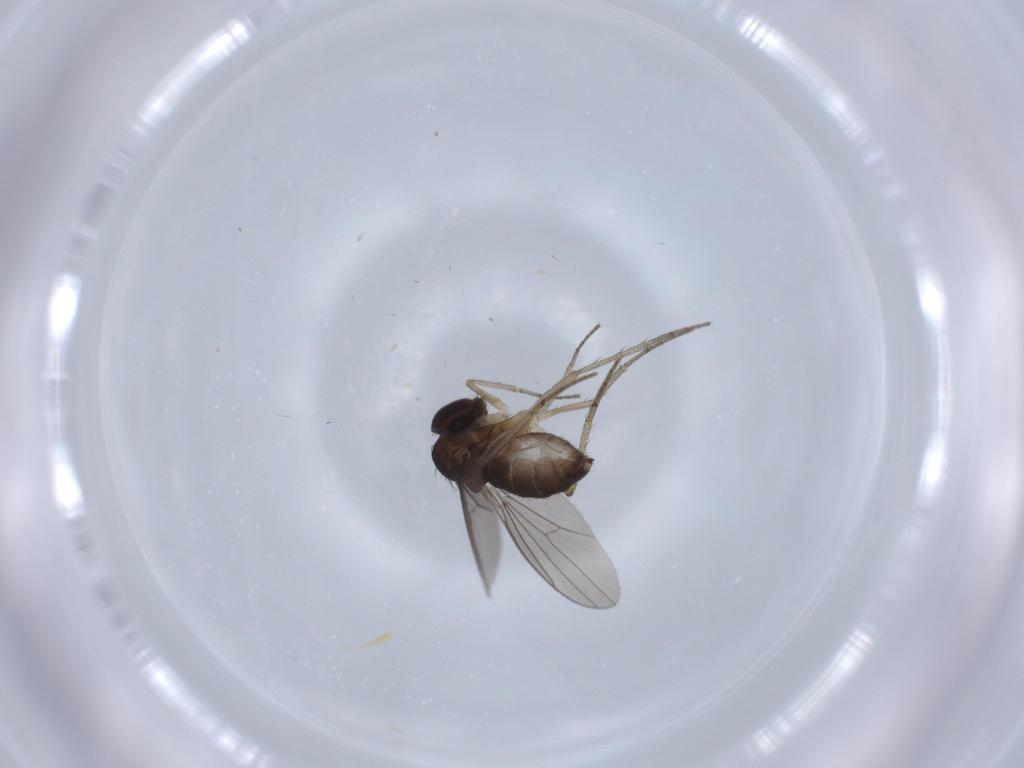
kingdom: Animalia
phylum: Arthropoda
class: Insecta
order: Diptera
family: Dolichopodidae
